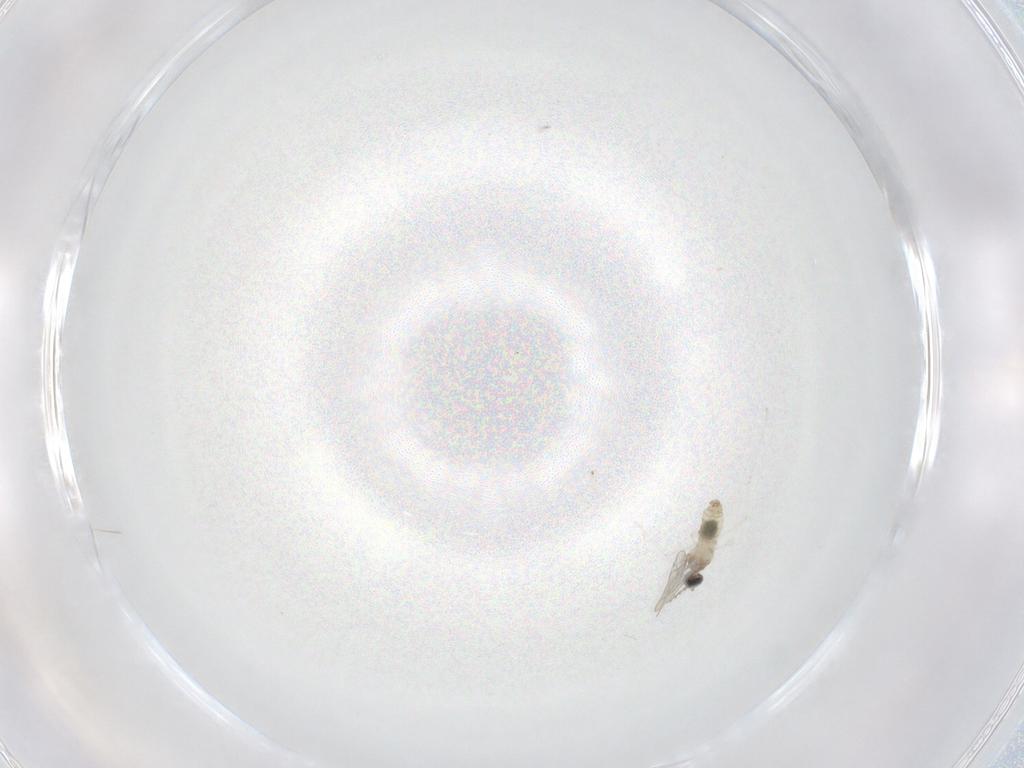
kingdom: Animalia
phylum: Arthropoda
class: Insecta
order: Diptera
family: Cecidomyiidae
